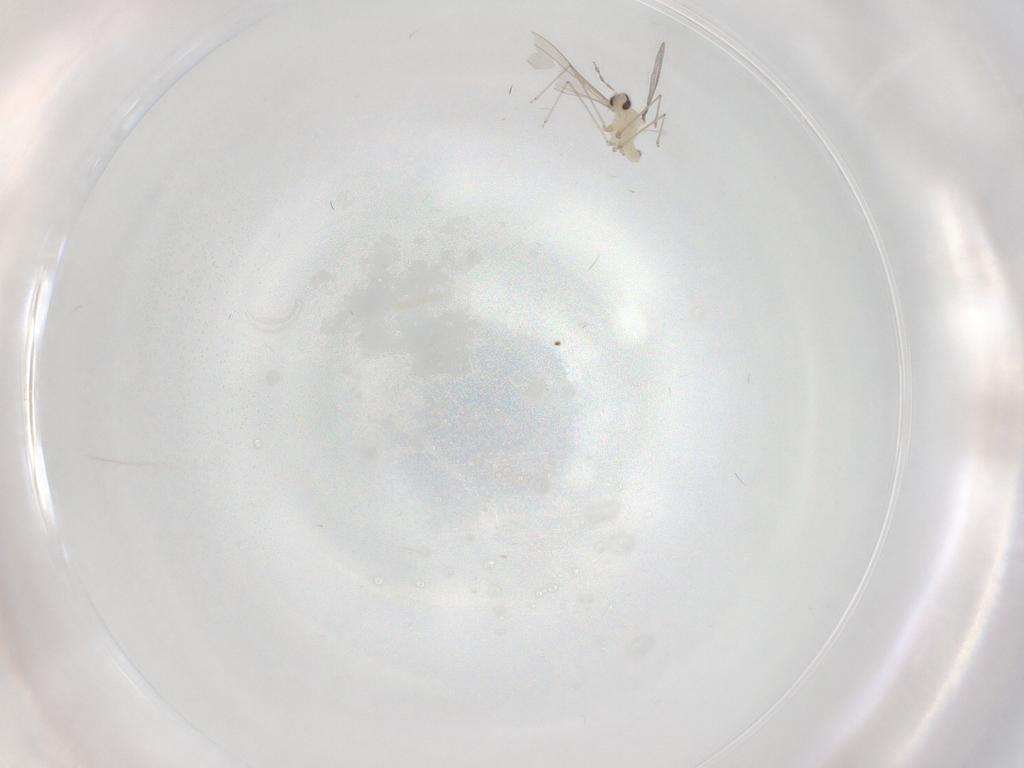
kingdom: Animalia
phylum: Arthropoda
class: Insecta
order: Diptera
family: Cecidomyiidae
